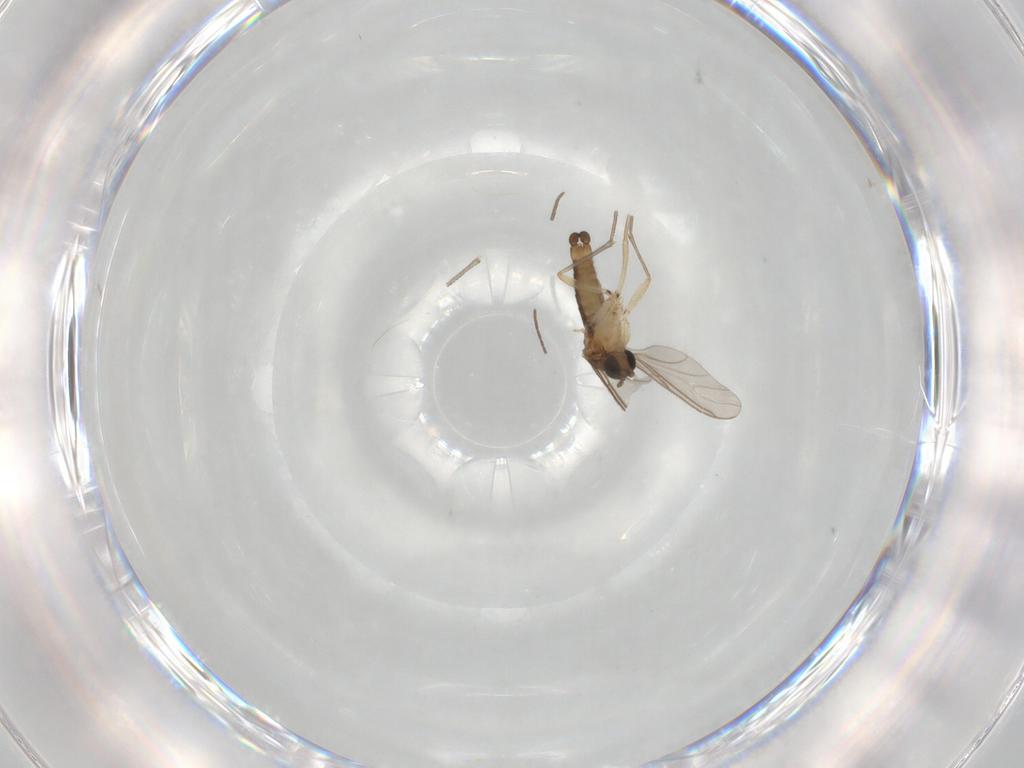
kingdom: Animalia
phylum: Arthropoda
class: Insecta
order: Diptera
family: Sciaridae
